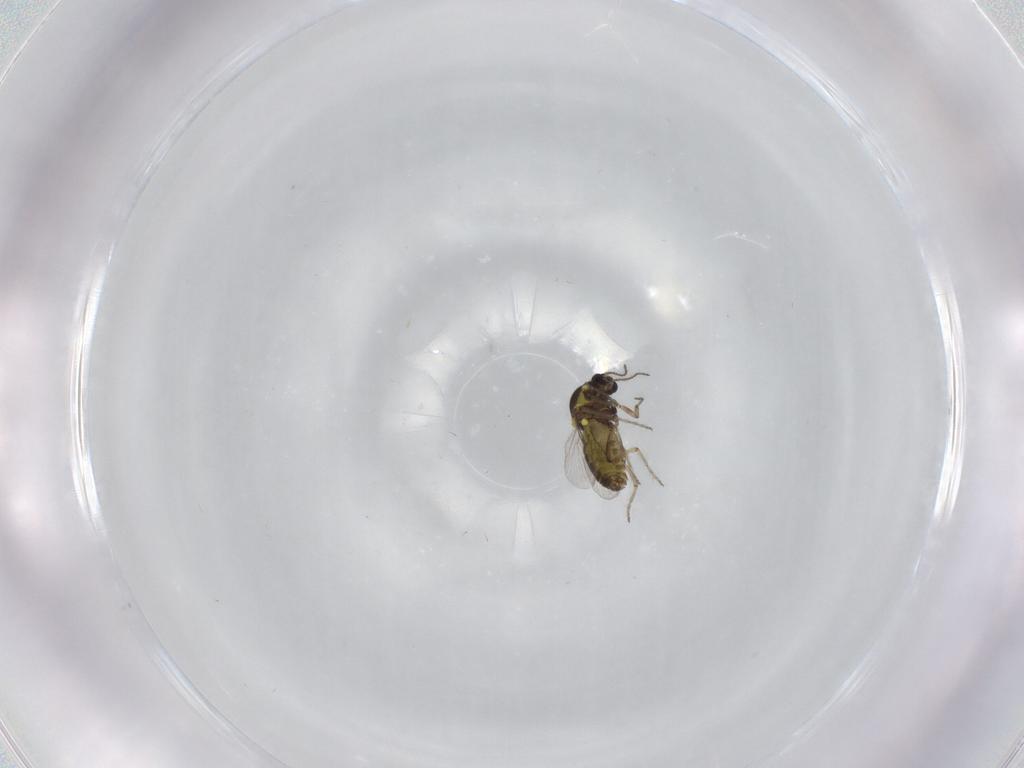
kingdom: Animalia
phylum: Arthropoda
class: Insecta
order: Diptera
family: Ceratopogonidae
